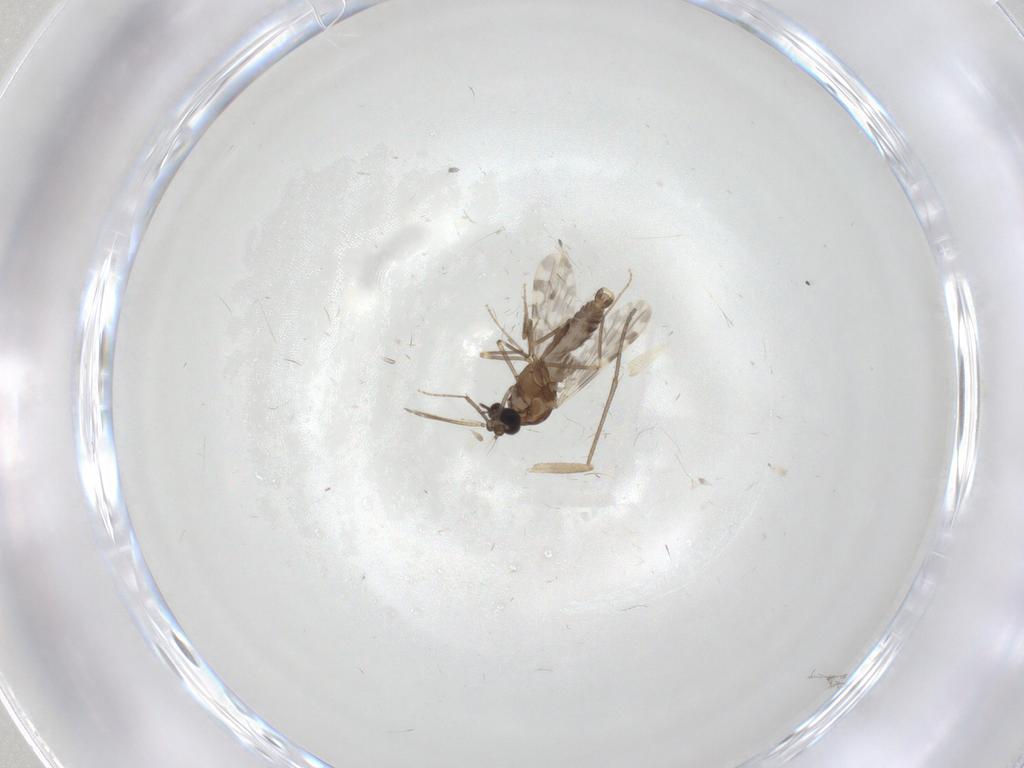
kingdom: Animalia
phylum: Arthropoda
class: Insecta
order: Diptera
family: Ceratopogonidae
